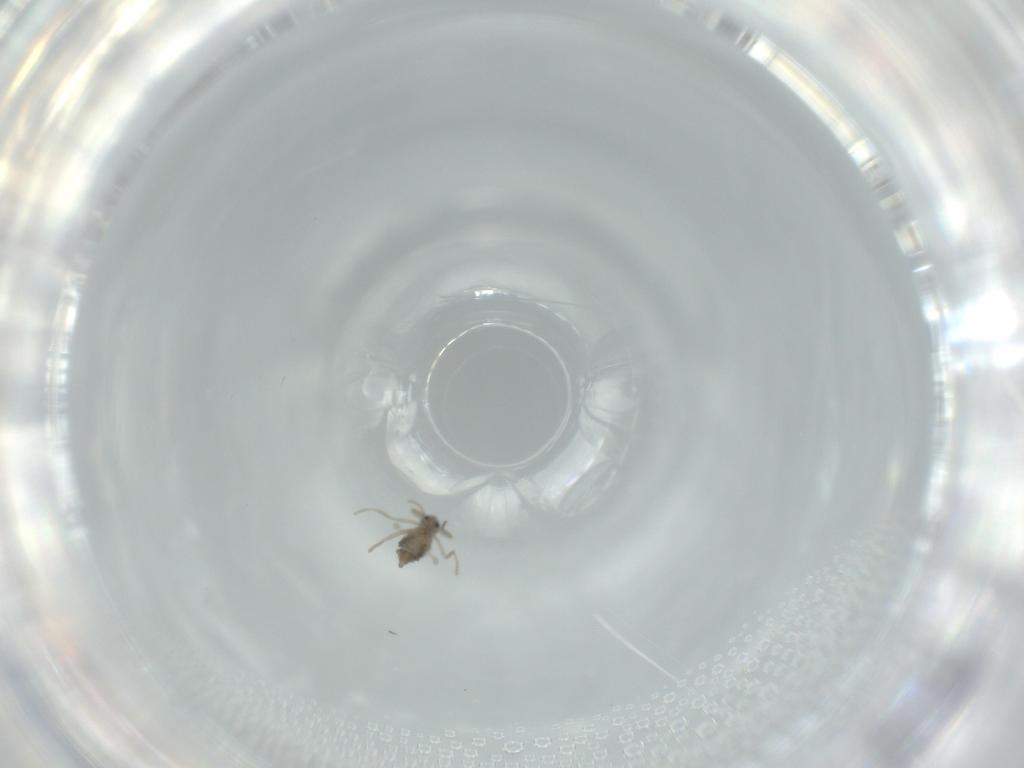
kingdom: Animalia
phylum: Arthropoda
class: Insecta
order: Diptera
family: Cecidomyiidae
